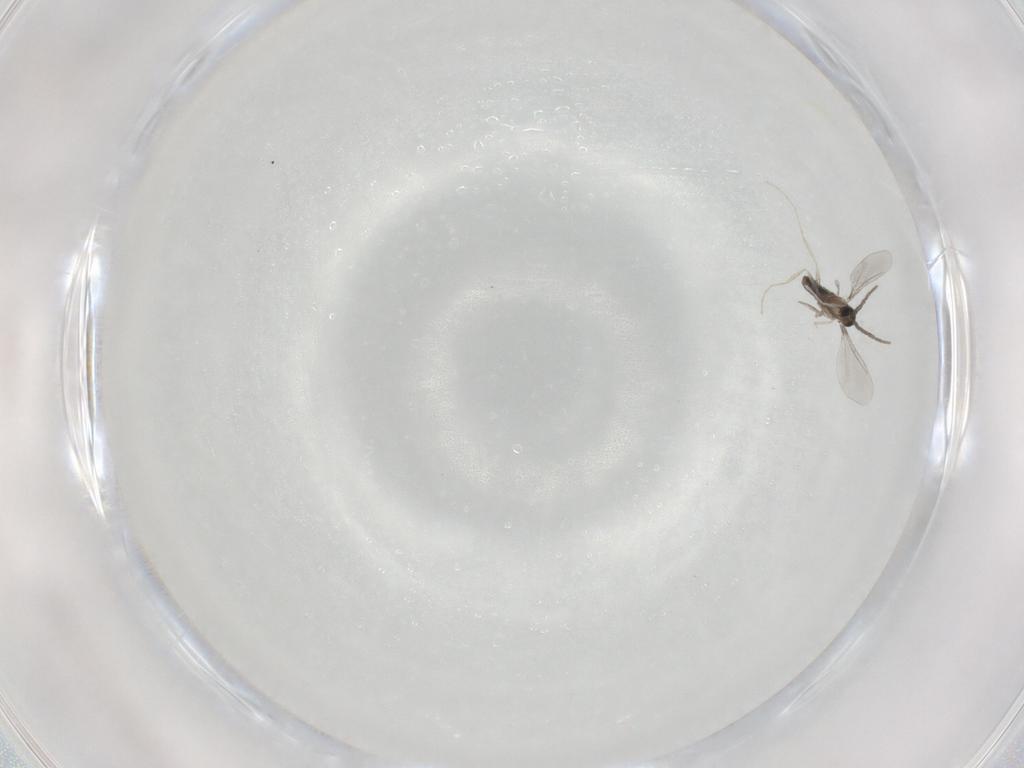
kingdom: Animalia
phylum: Arthropoda
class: Insecta
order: Diptera
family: Cecidomyiidae
